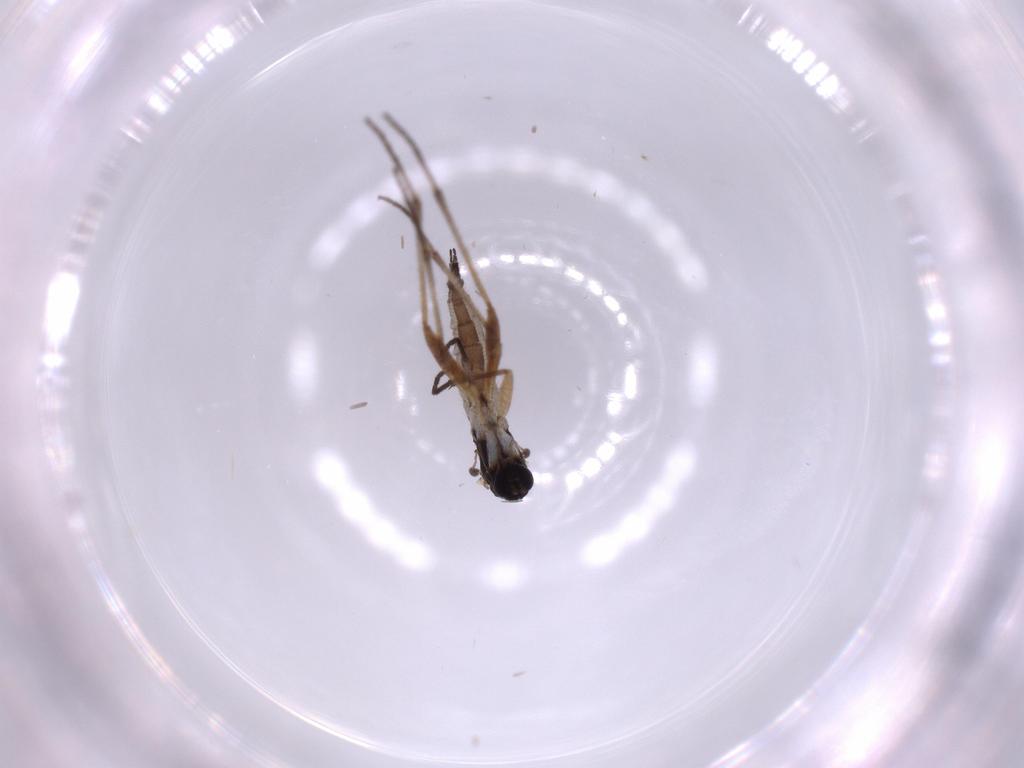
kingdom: Animalia
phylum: Arthropoda
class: Insecta
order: Diptera
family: Sciaridae
